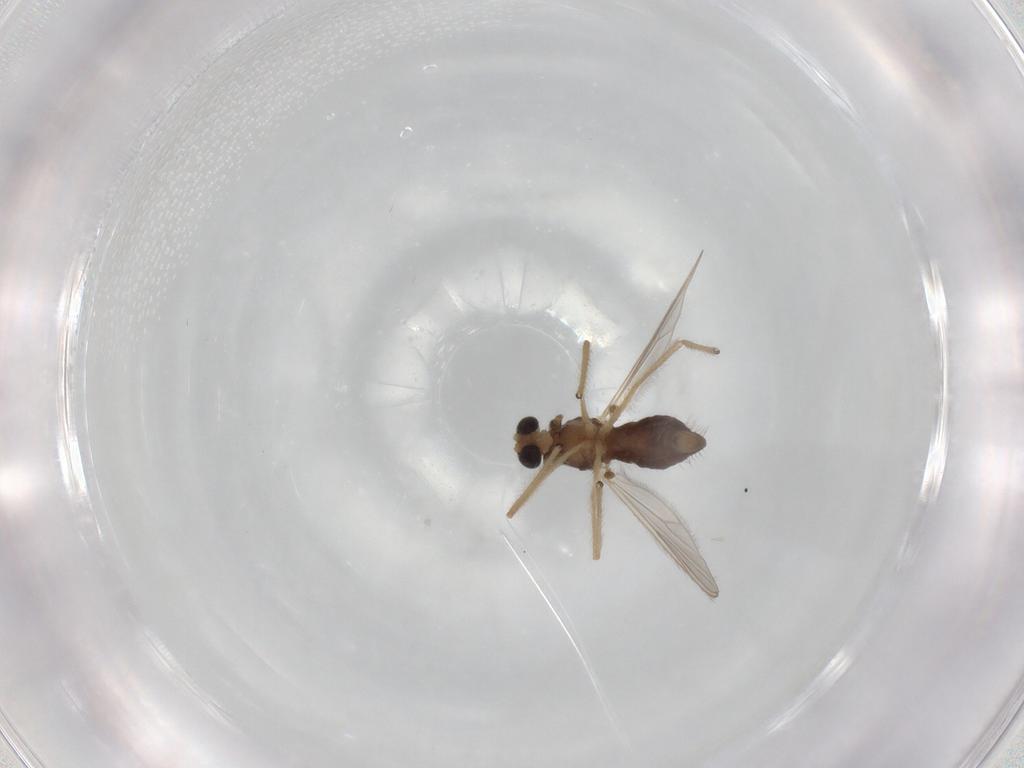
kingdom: Animalia
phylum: Arthropoda
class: Insecta
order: Diptera
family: Chironomidae
